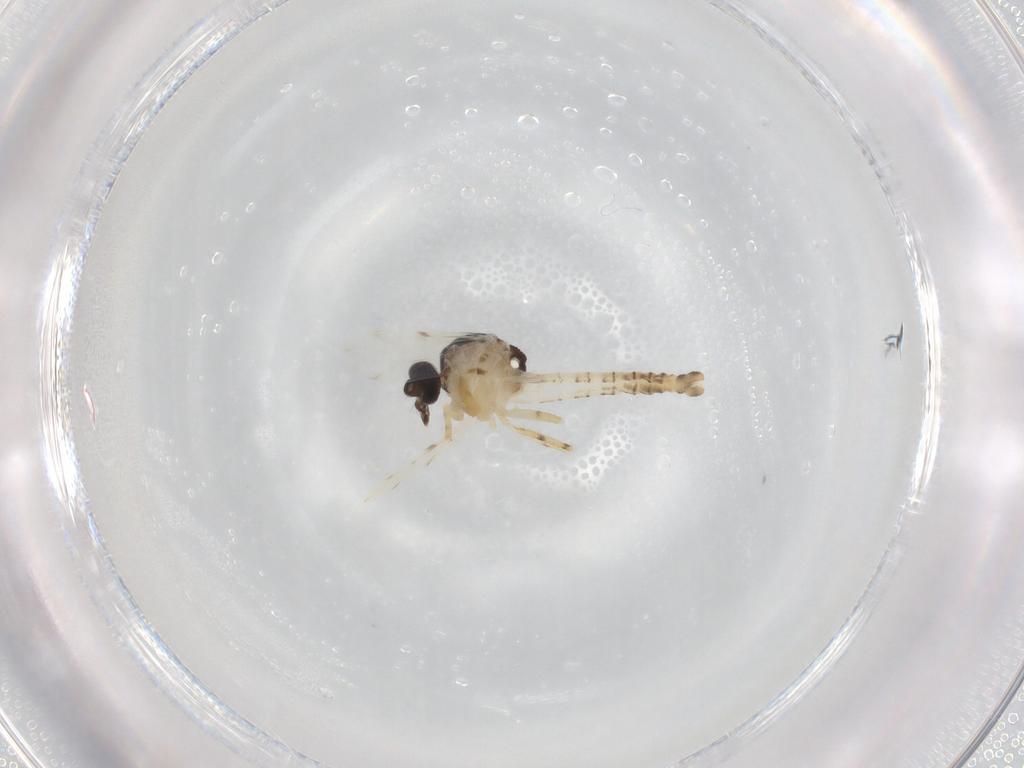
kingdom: Animalia
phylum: Arthropoda
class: Insecta
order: Diptera
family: Ceratopogonidae
